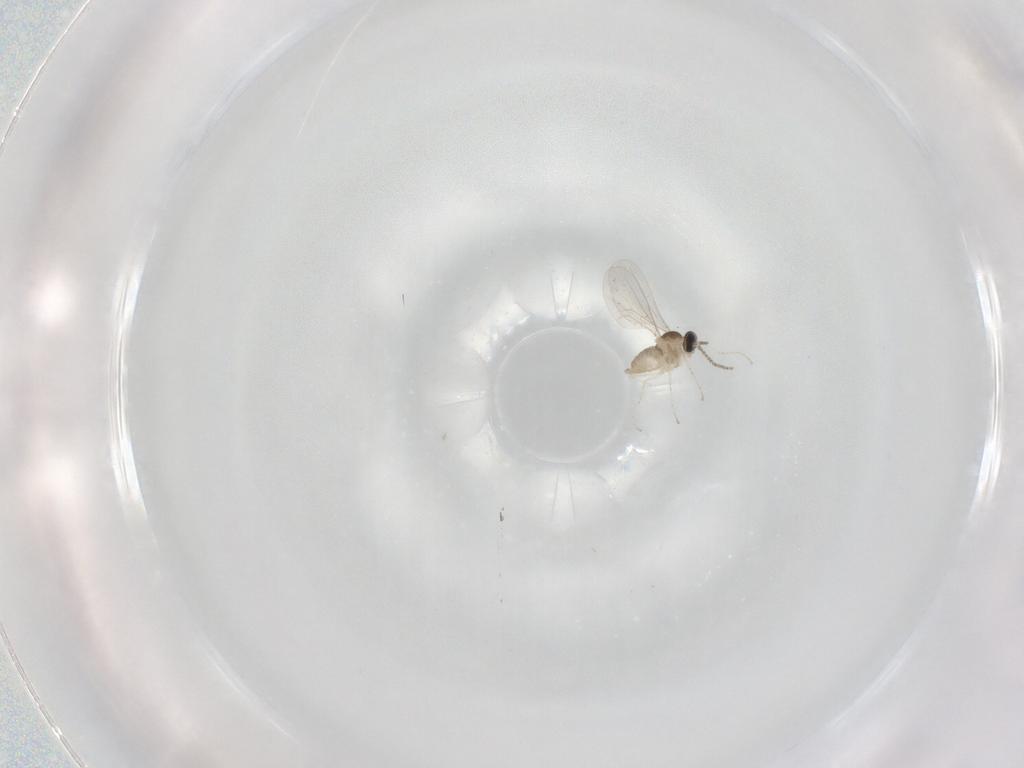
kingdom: Animalia
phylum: Arthropoda
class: Insecta
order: Diptera
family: Cecidomyiidae
